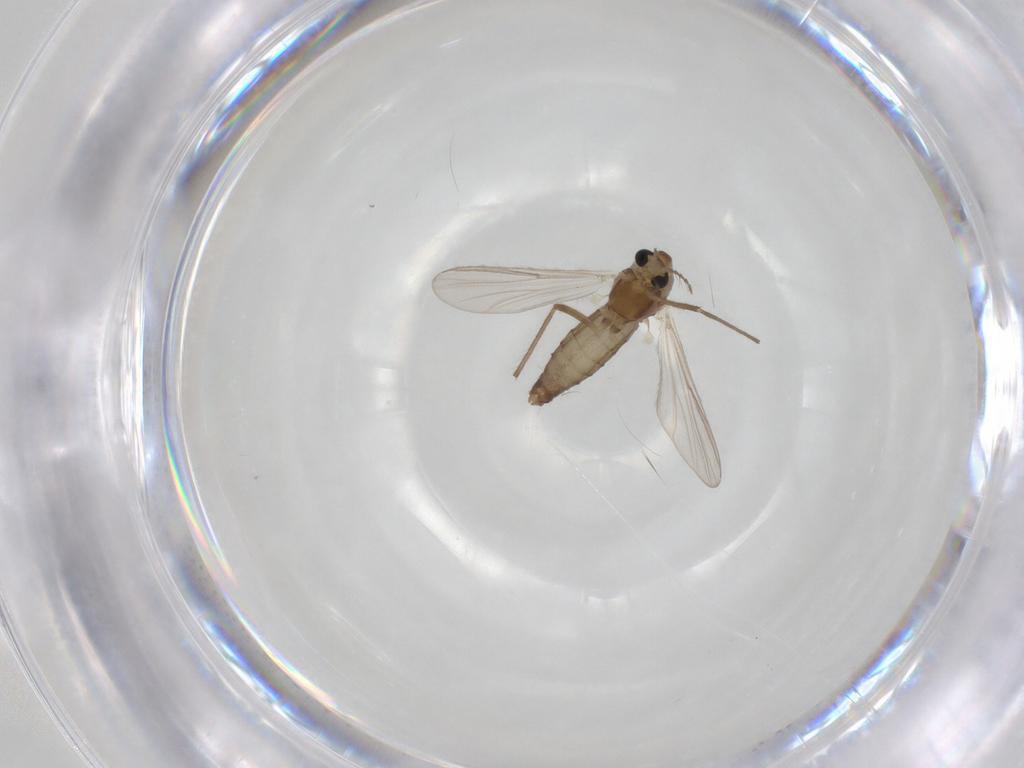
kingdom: Animalia
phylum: Arthropoda
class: Insecta
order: Diptera
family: Chironomidae
